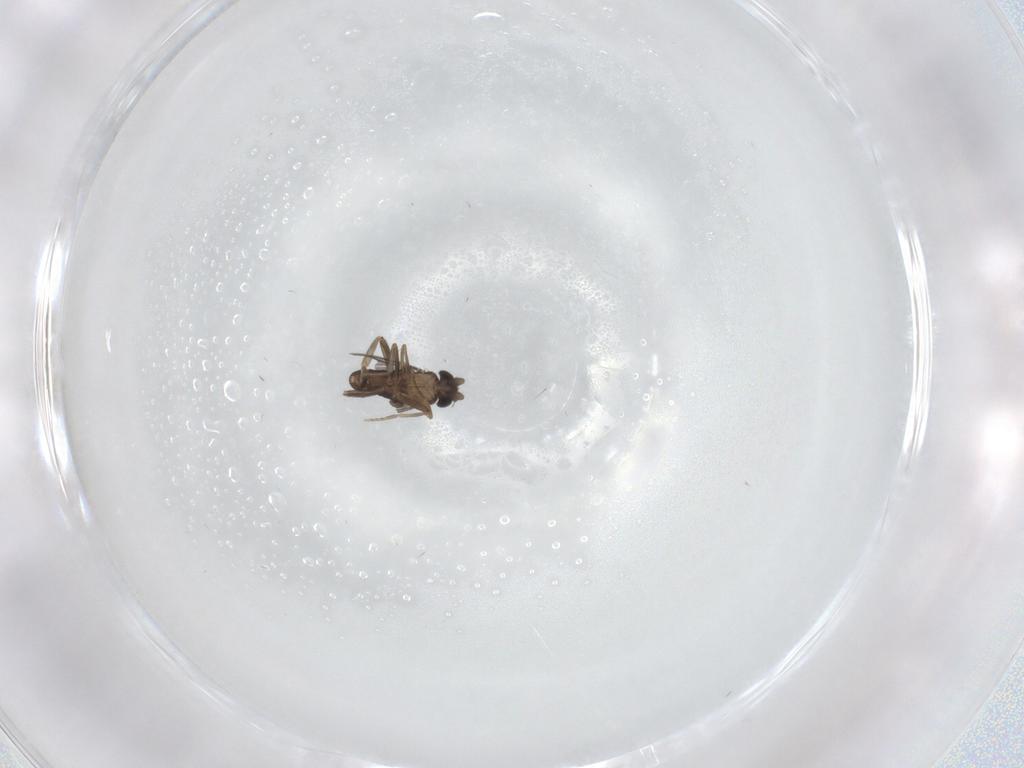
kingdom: Animalia
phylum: Arthropoda
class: Insecta
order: Diptera
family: Phoridae
